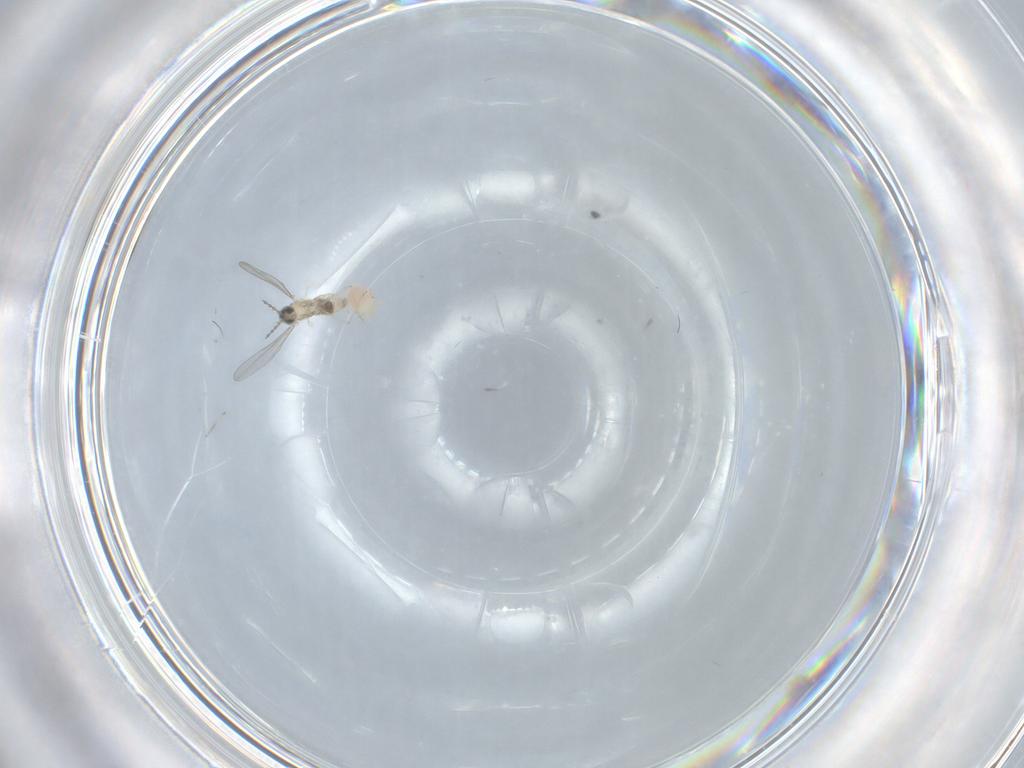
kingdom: Animalia
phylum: Arthropoda
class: Insecta
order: Diptera
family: Cecidomyiidae
